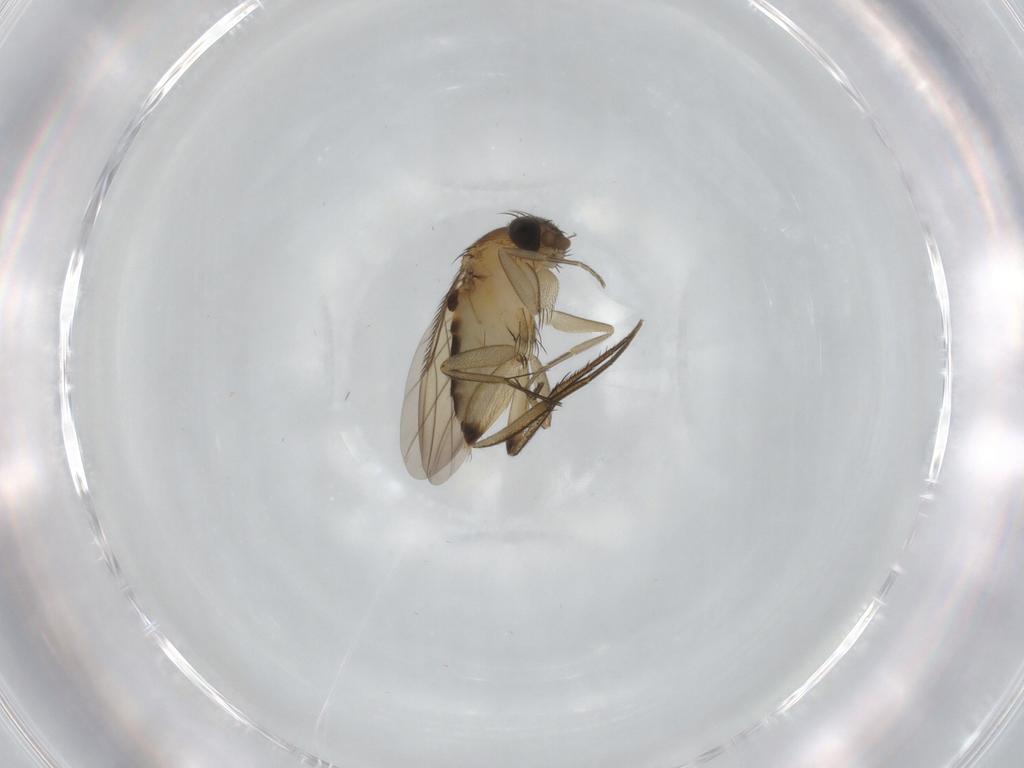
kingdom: Animalia
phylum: Arthropoda
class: Insecta
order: Diptera
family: Phoridae
